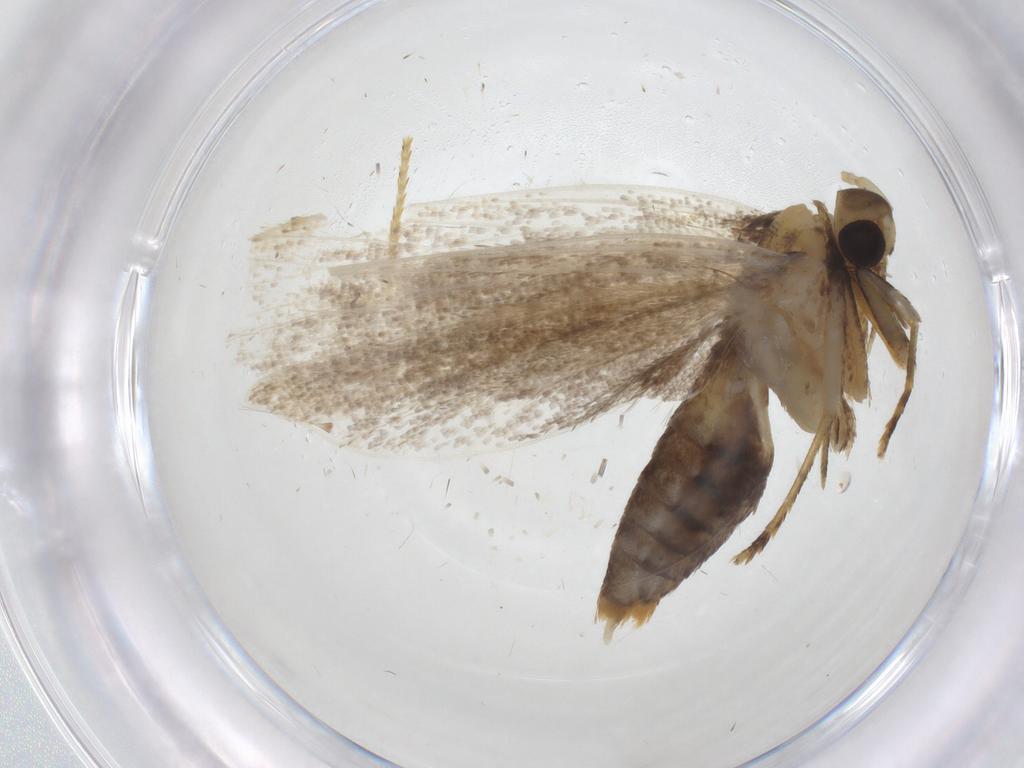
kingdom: Animalia
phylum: Arthropoda
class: Insecta
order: Lepidoptera
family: Lecithoceridae
